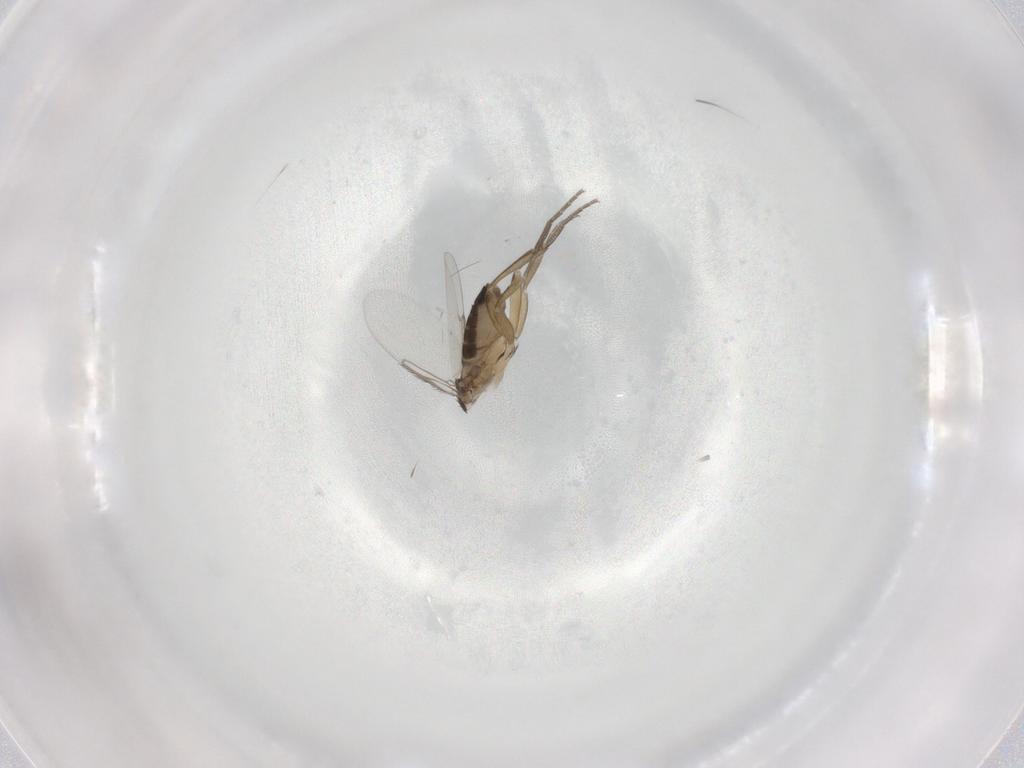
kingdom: Animalia
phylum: Arthropoda
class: Insecta
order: Diptera
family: Phoridae
